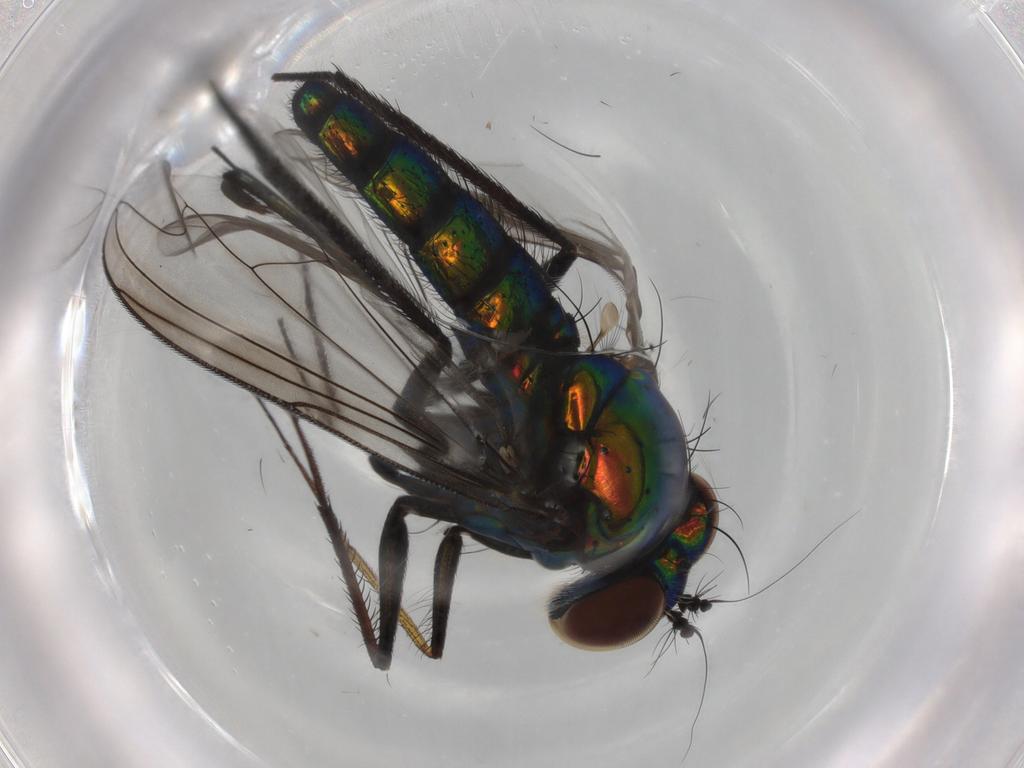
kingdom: Animalia
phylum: Arthropoda
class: Insecta
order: Diptera
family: Dolichopodidae
